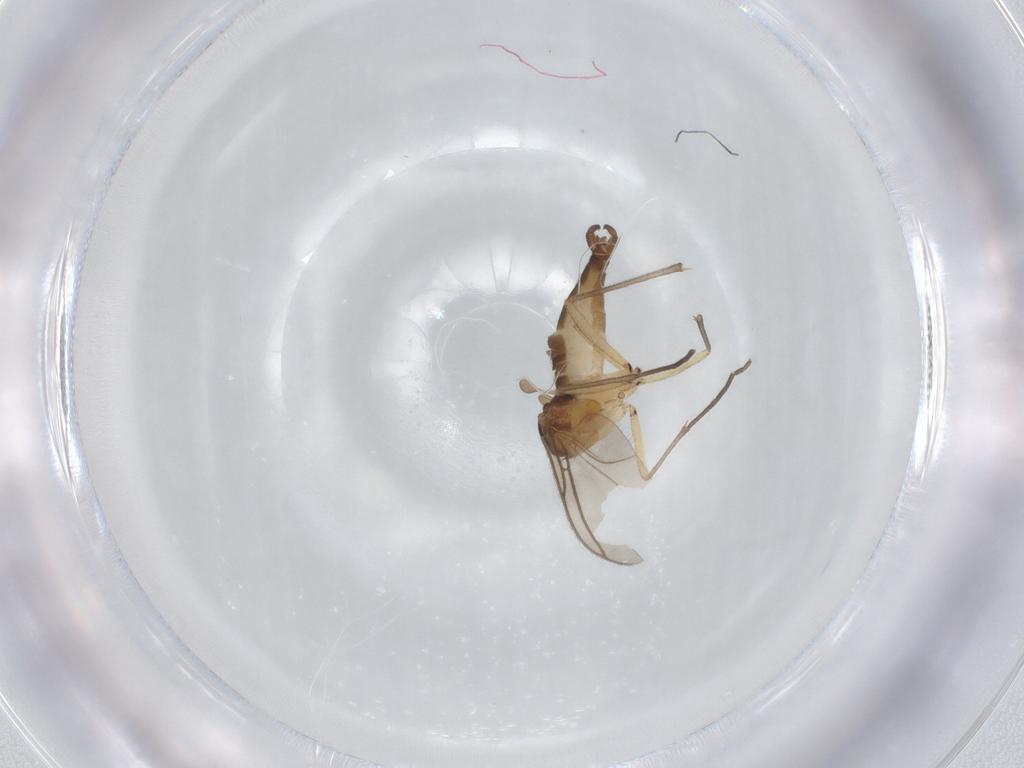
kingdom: Animalia
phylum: Arthropoda
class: Insecta
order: Diptera
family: Sciaridae
